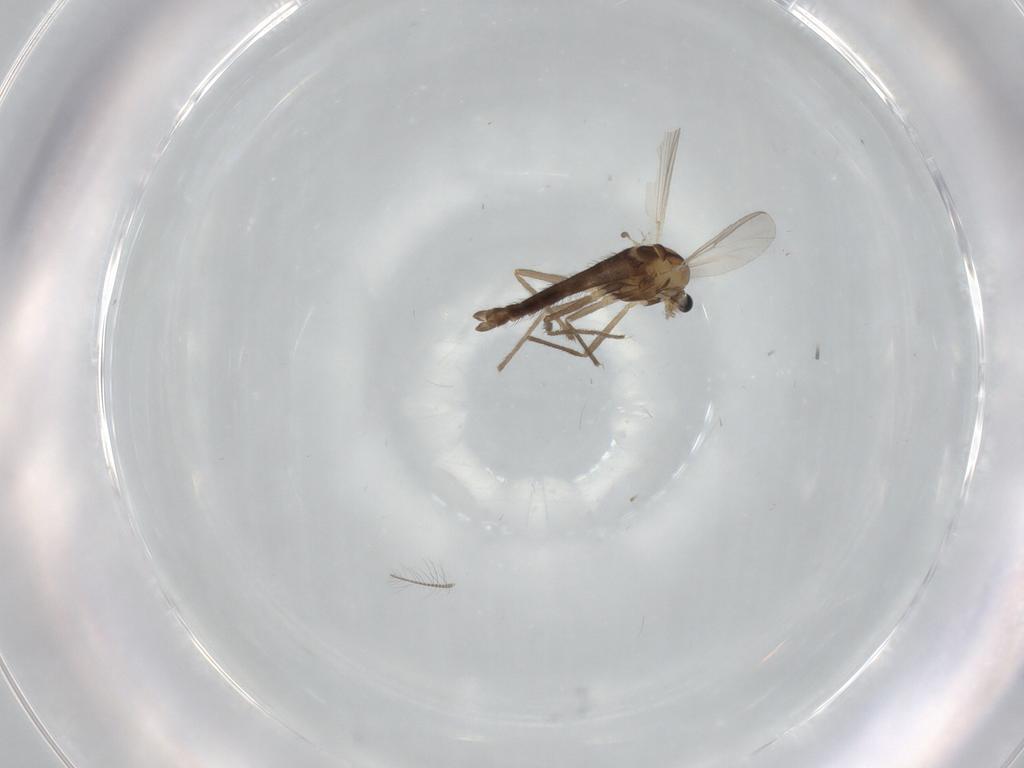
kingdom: Animalia
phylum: Arthropoda
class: Insecta
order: Diptera
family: Chironomidae
